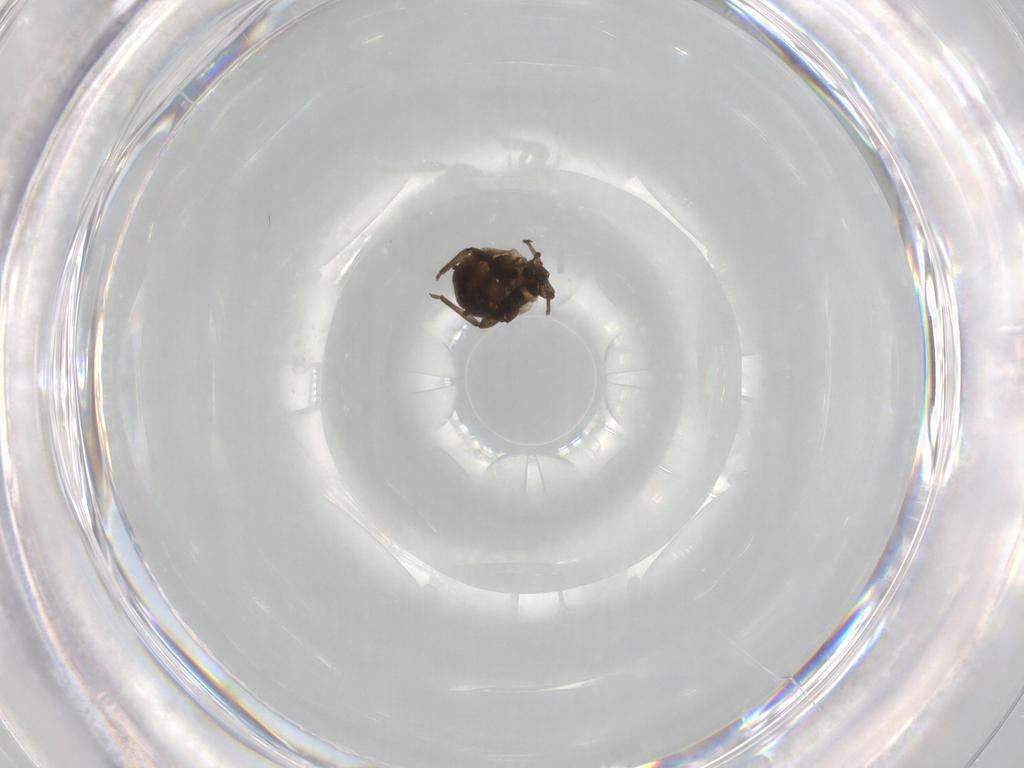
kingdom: Animalia
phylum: Arthropoda
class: Insecta
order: Hemiptera
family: Aphididae
